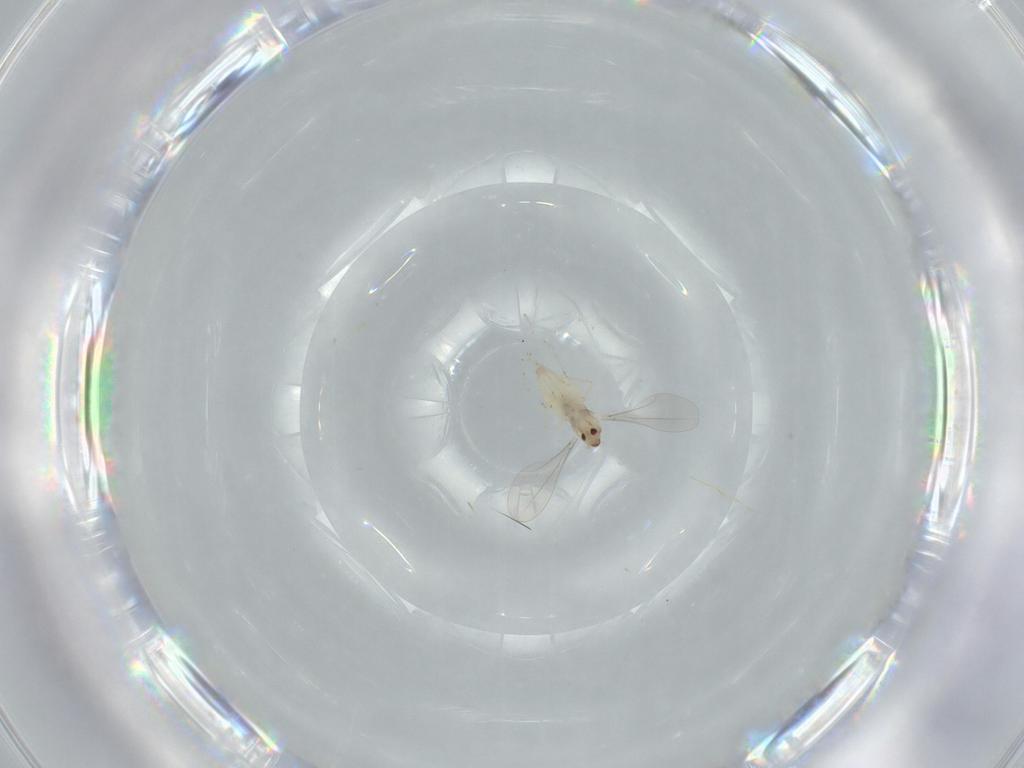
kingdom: Animalia
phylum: Arthropoda
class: Insecta
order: Diptera
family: Cecidomyiidae
